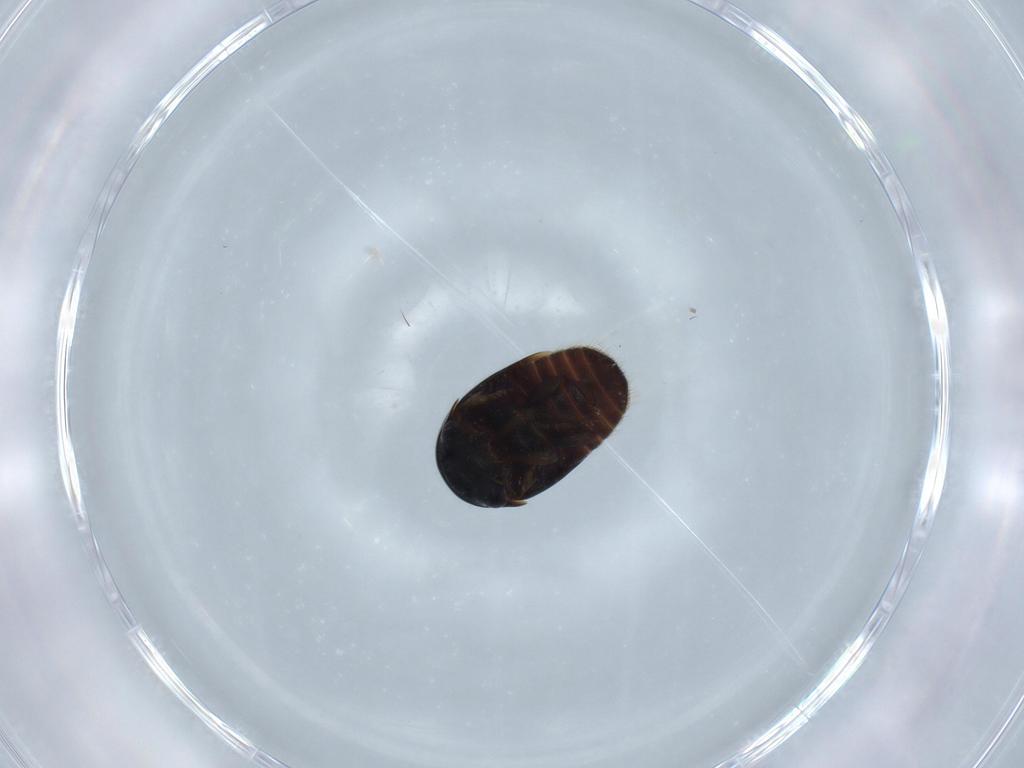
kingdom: Animalia
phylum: Arthropoda
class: Insecta
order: Coleoptera
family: Cybocephalidae
